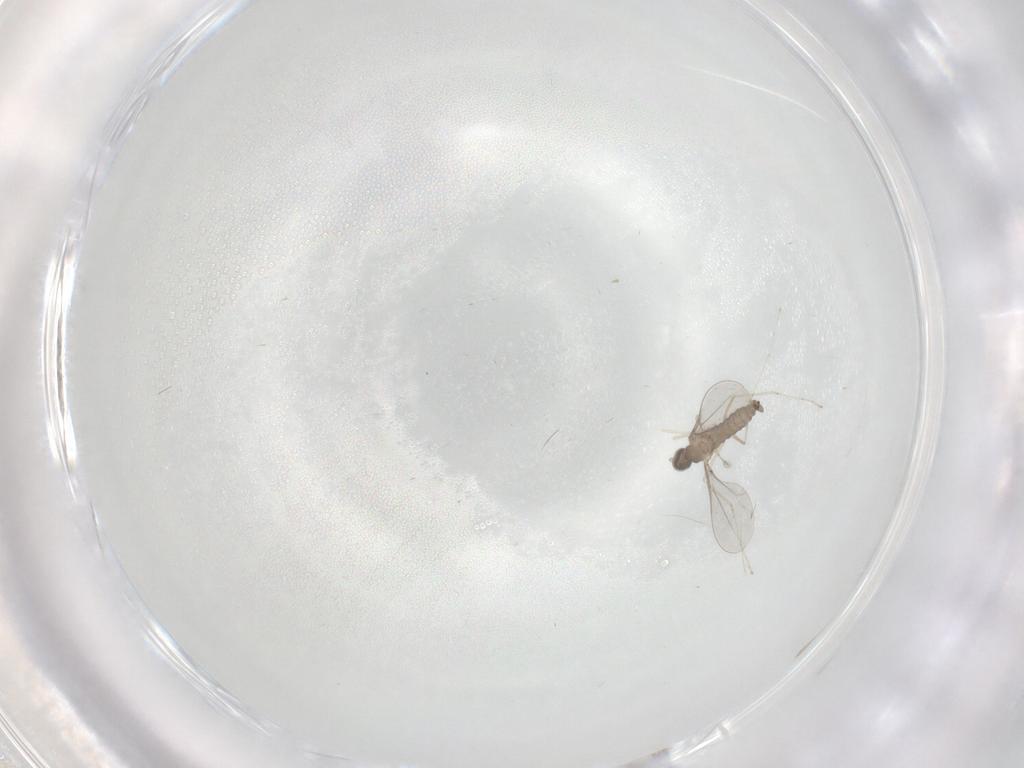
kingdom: Animalia
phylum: Arthropoda
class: Insecta
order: Diptera
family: Cecidomyiidae
